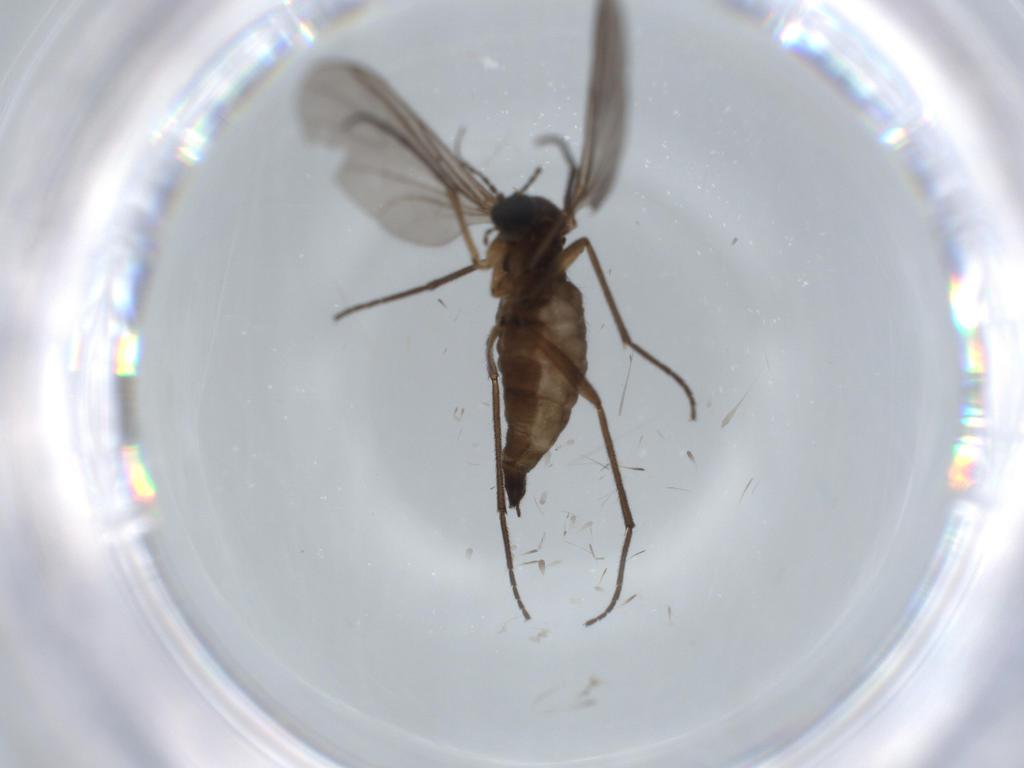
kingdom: Animalia
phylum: Arthropoda
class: Insecta
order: Diptera
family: Sciaridae
